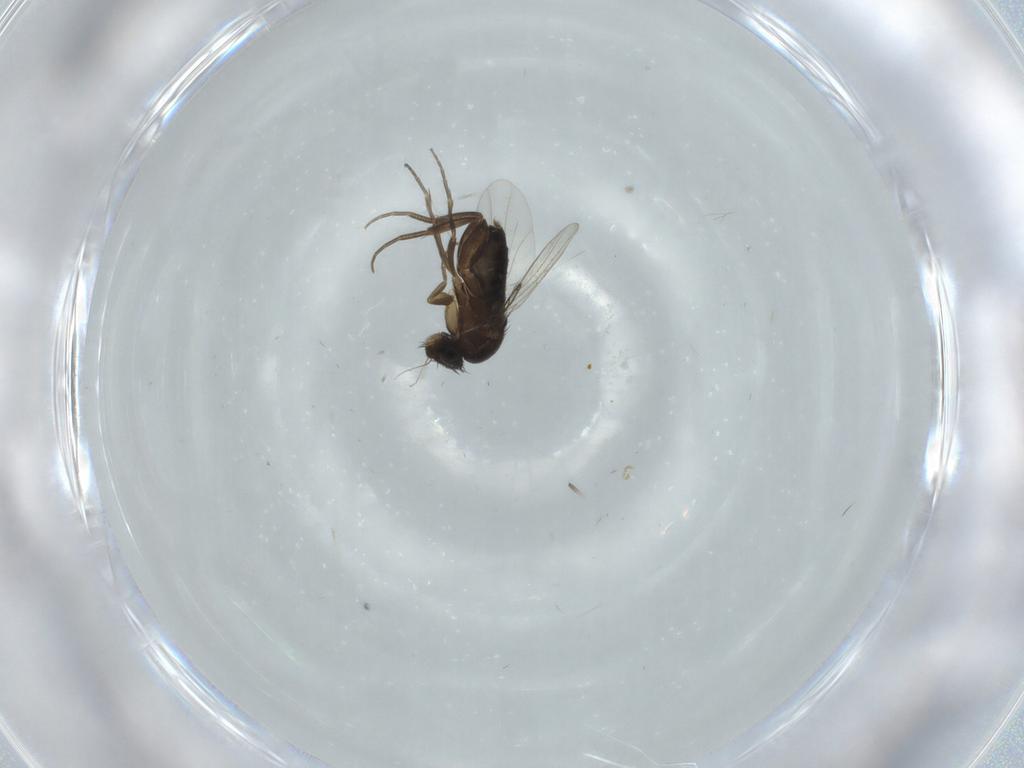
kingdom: Animalia
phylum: Arthropoda
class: Insecta
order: Diptera
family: Phoridae
